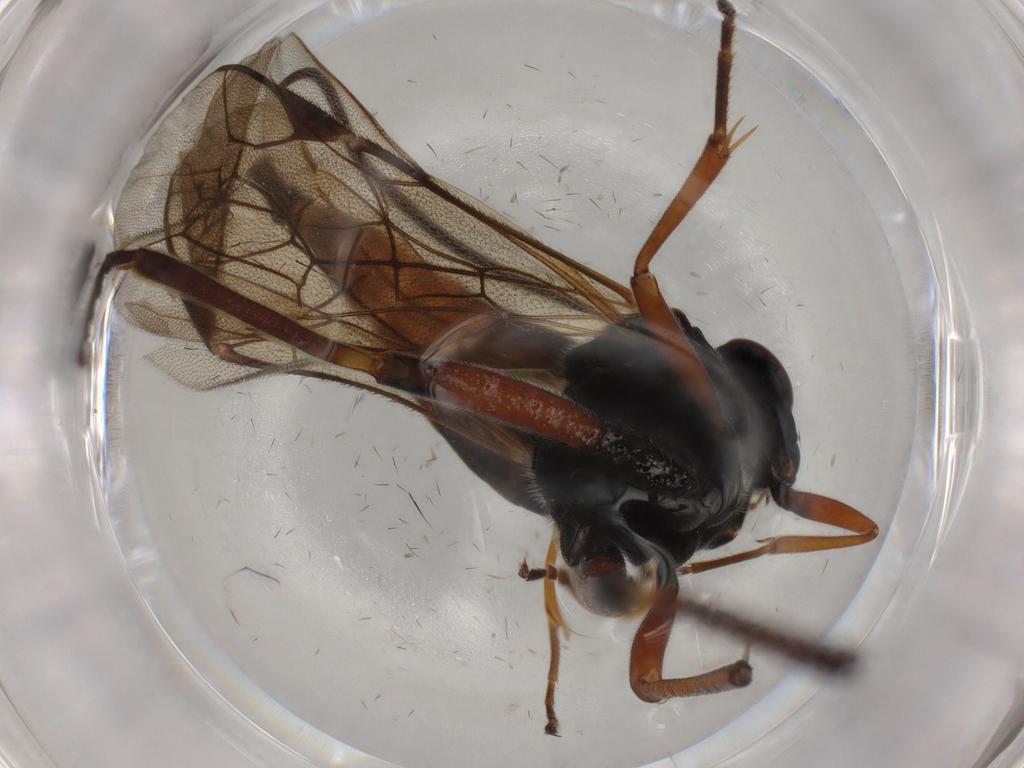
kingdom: Animalia
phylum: Arthropoda
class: Insecta
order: Hymenoptera
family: Ichneumonidae
